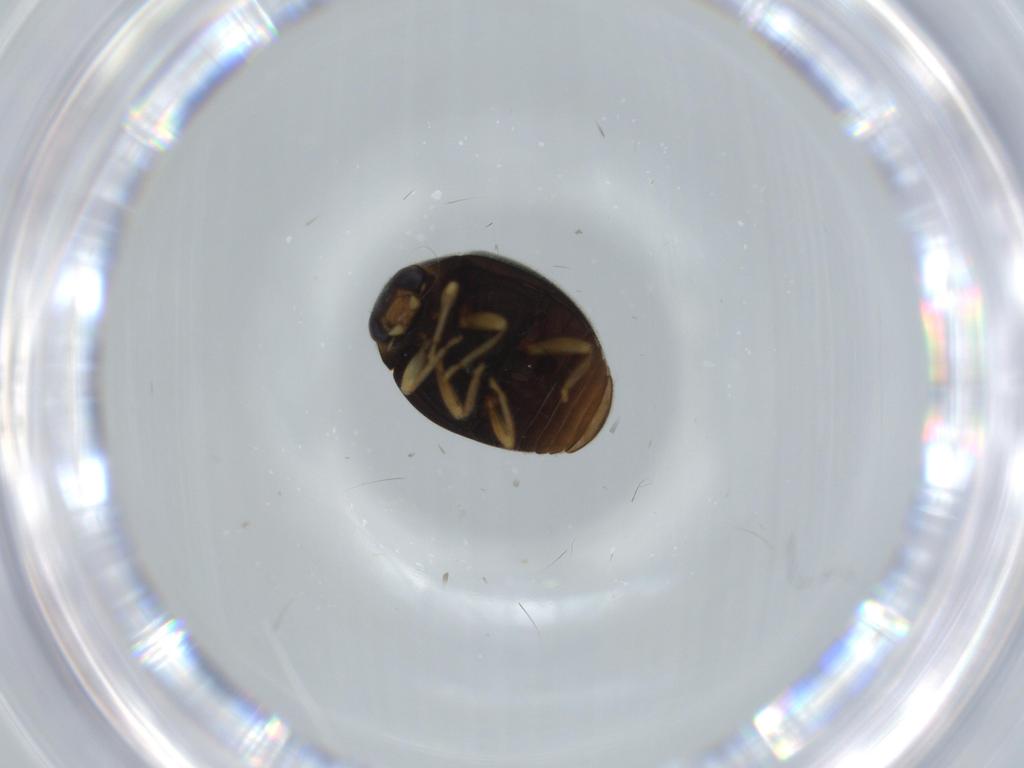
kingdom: Animalia
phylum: Arthropoda
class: Insecta
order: Coleoptera
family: Coccinellidae
